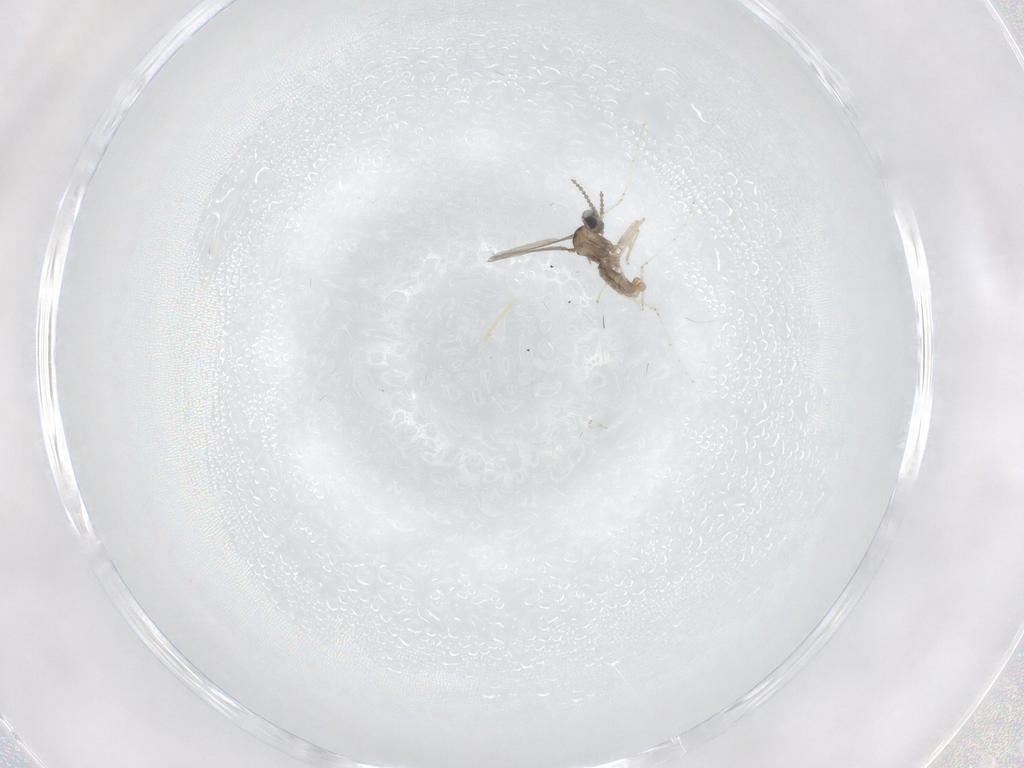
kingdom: Animalia
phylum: Arthropoda
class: Insecta
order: Diptera
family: Cecidomyiidae
